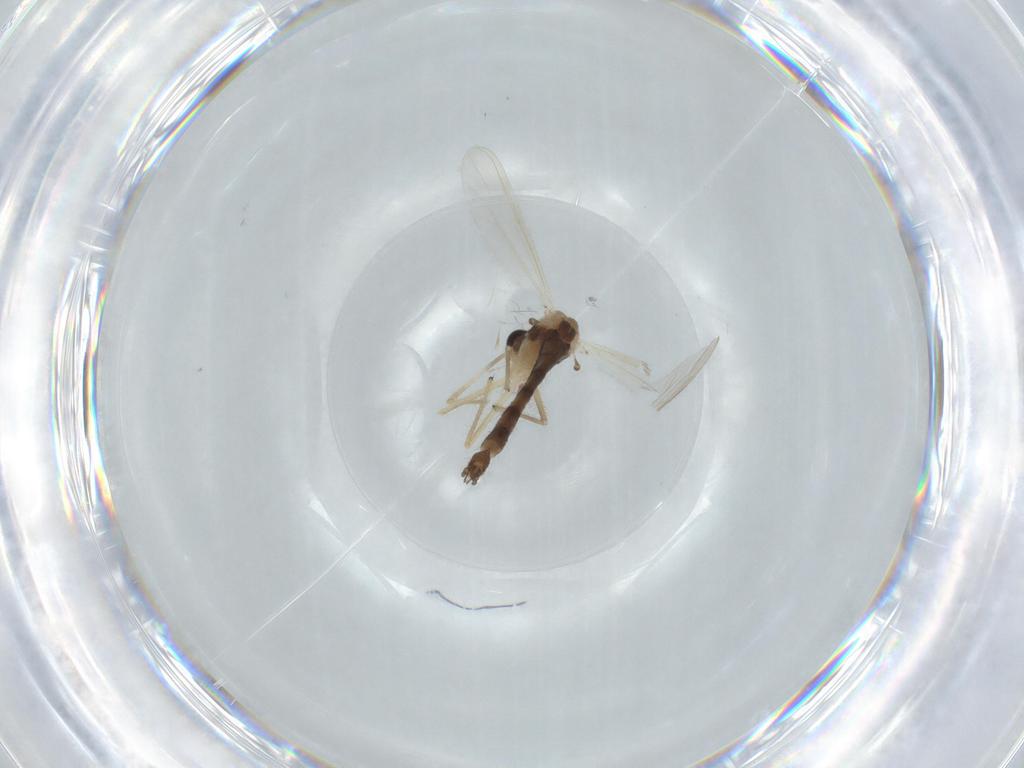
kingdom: Animalia
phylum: Arthropoda
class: Insecta
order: Diptera
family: Chironomidae
